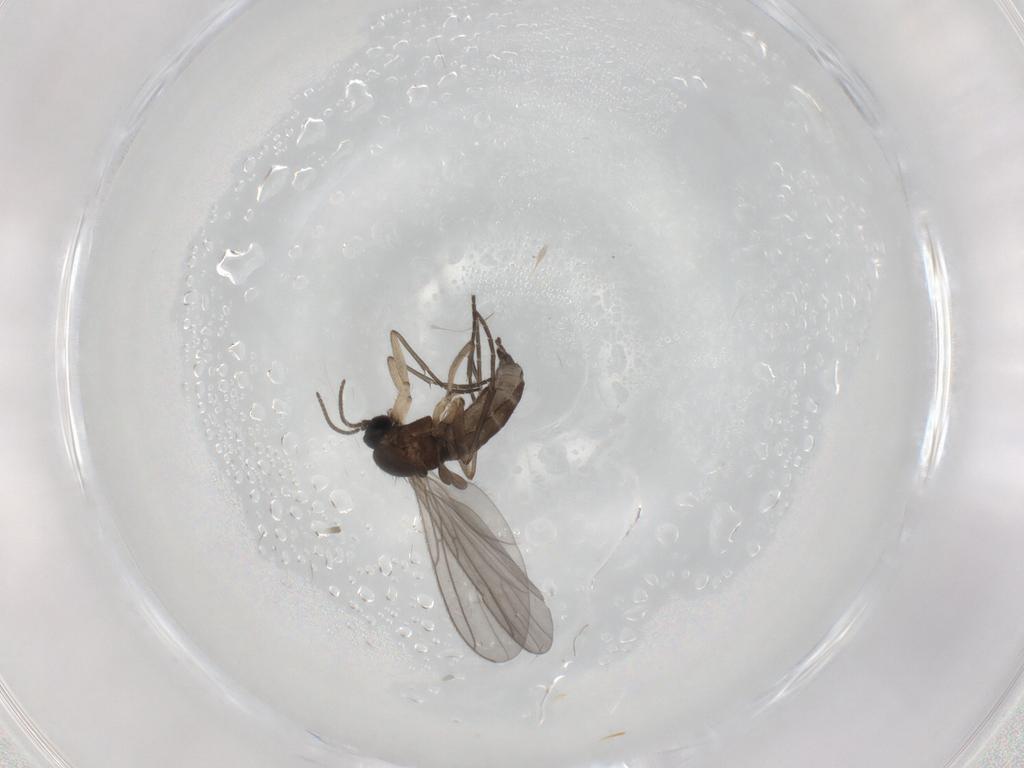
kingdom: Animalia
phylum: Arthropoda
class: Insecta
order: Diptera
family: Sciaridae
